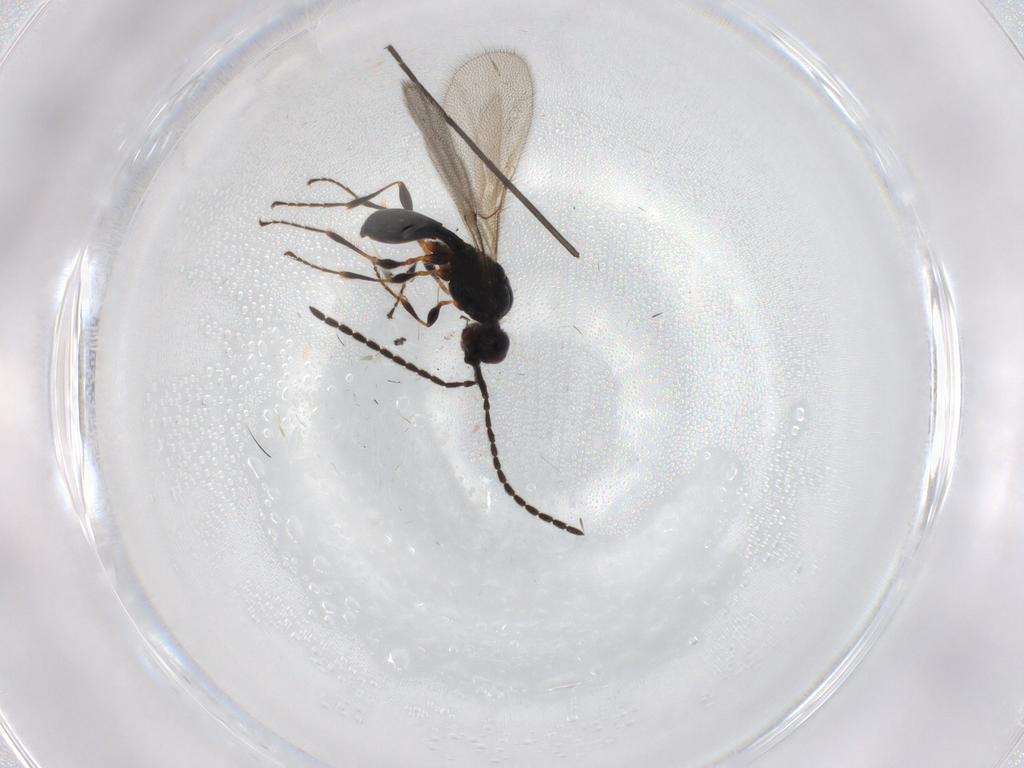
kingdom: Animalia
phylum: Arthropoda
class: Insecta
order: Hymenoptera
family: Diapriidae
